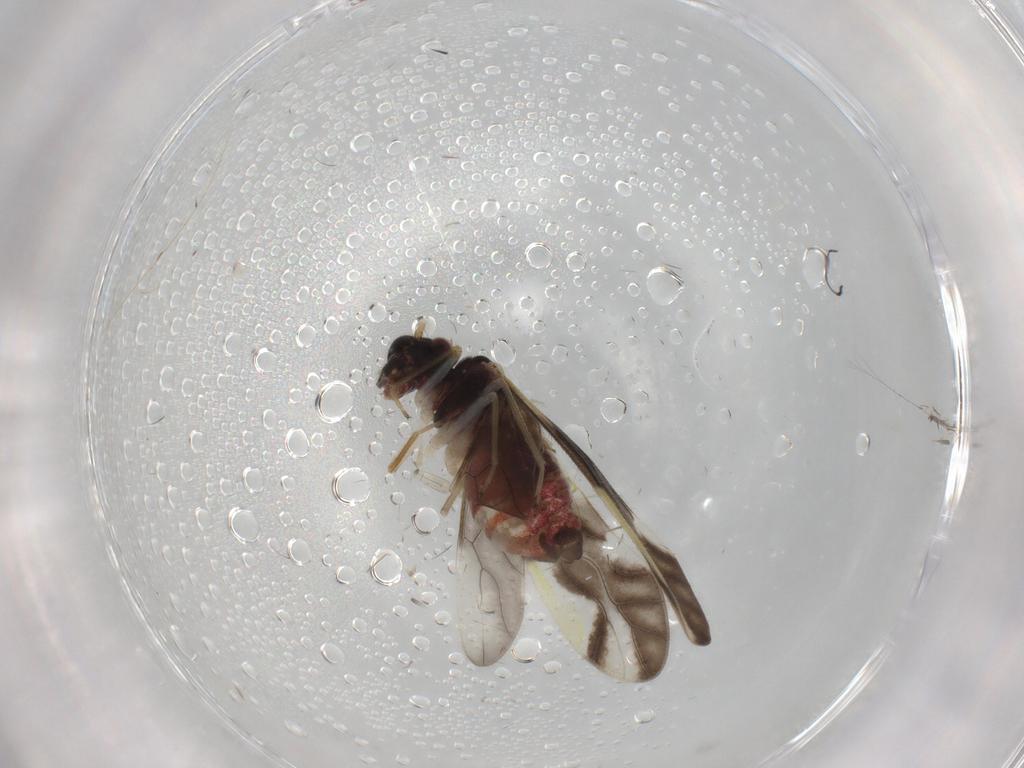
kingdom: Animalia
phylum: Arthropoda
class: Insecta
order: Psocodea
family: Caeciliusidae
